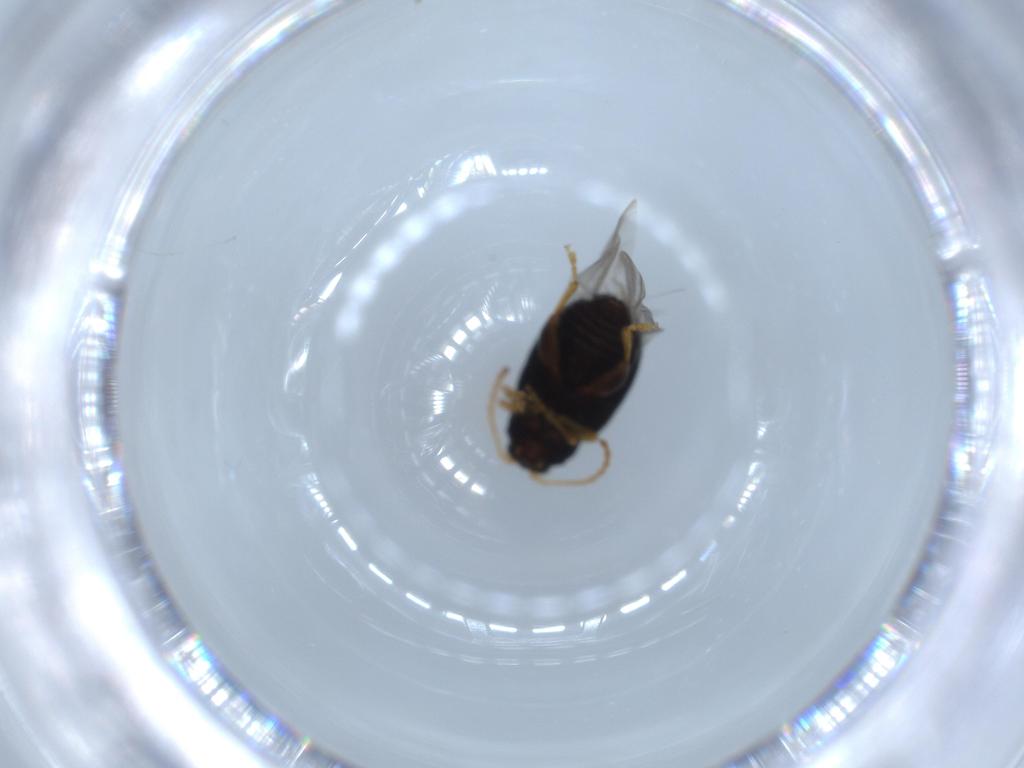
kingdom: Animalia
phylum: Arthropoda
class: Insecta
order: Coleoptera
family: Chrysomelidae
